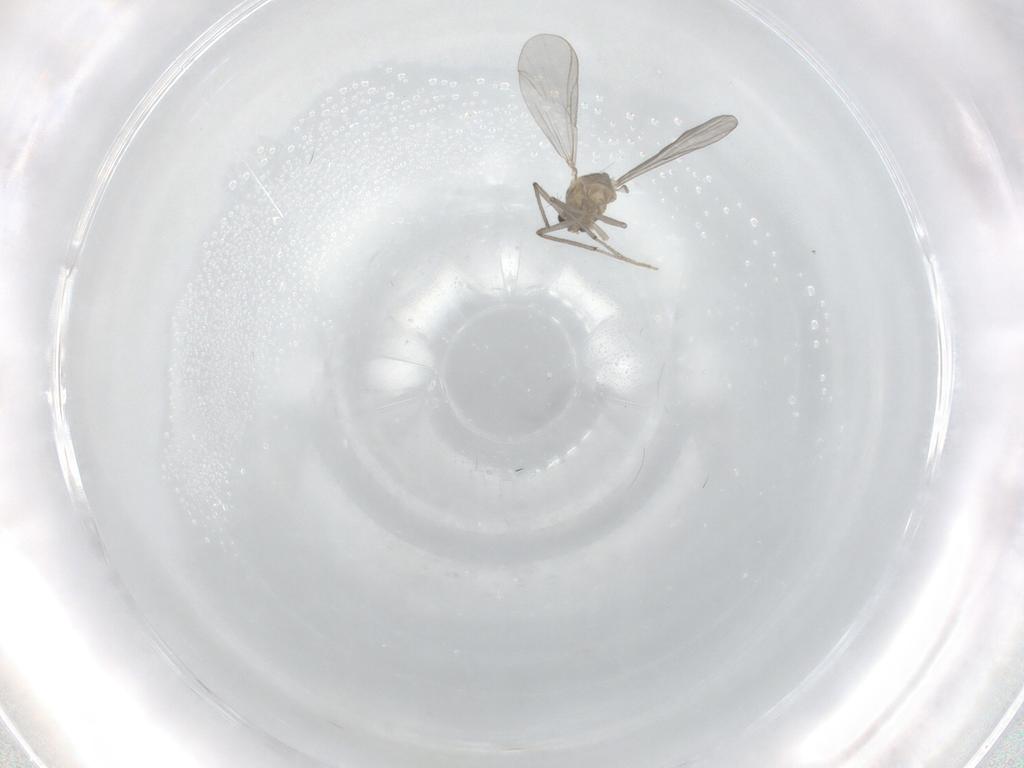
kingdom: Animalia
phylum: Arthropoda
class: Insecta
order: Diptera
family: Chironomidae
